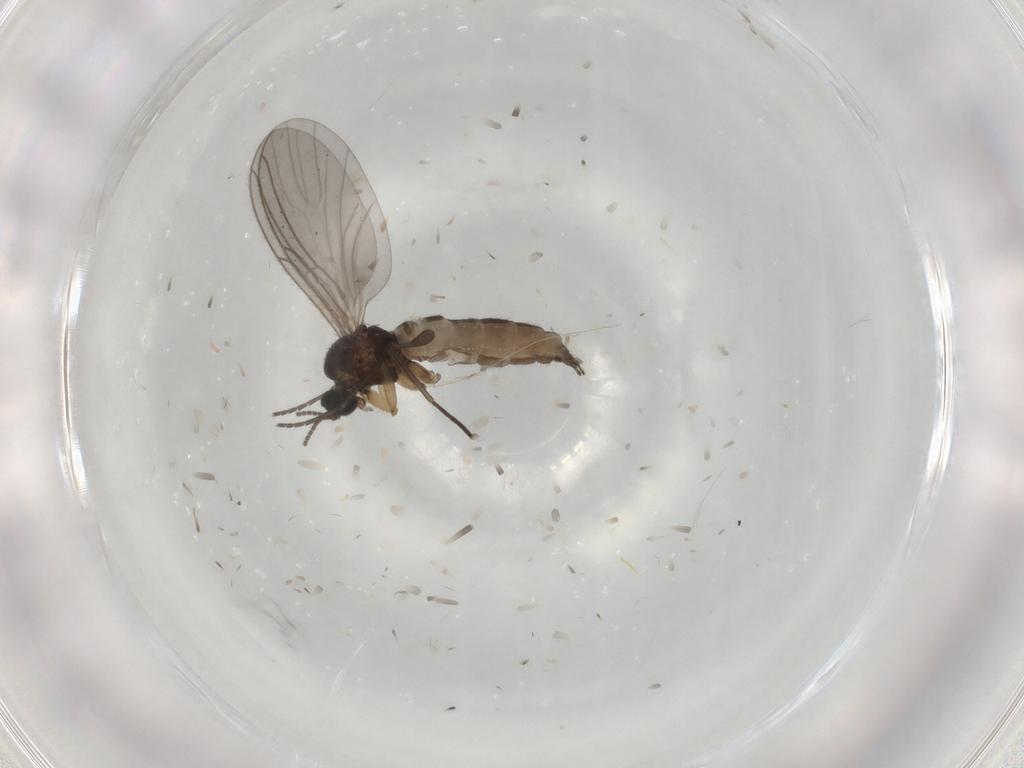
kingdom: Animalia
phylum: Arthropoda
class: Insecta
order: Diptera
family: Sciaridae
